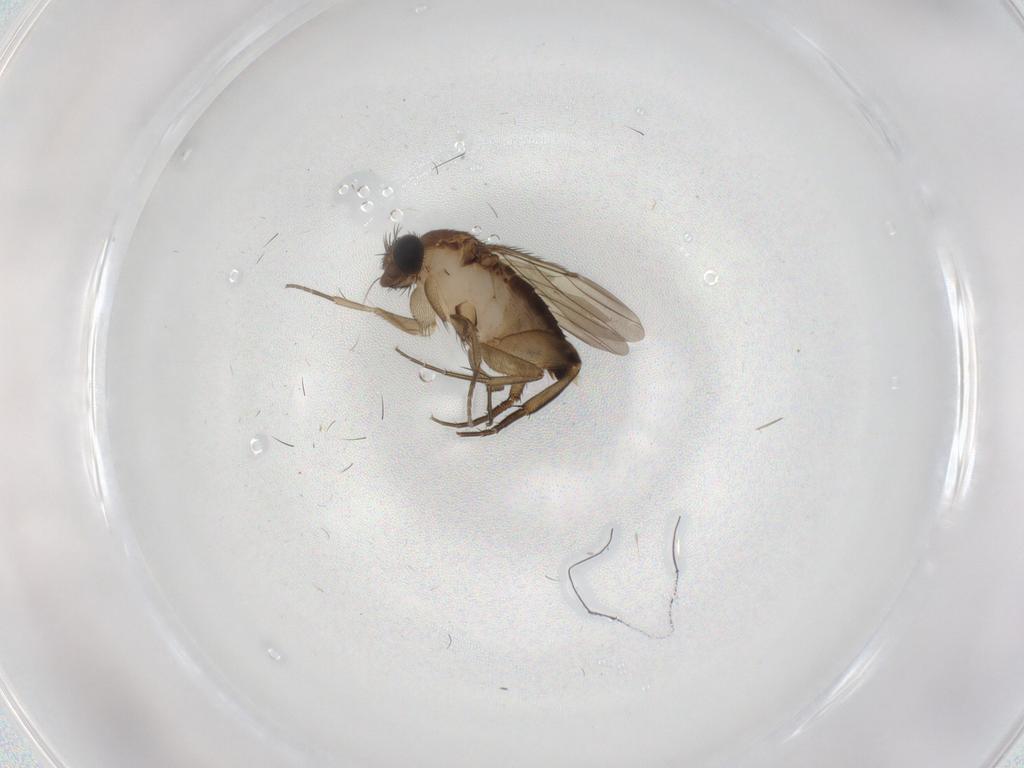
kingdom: Animalia
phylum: Arthropoda
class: Insecta
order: Diptera
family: Phoridae
